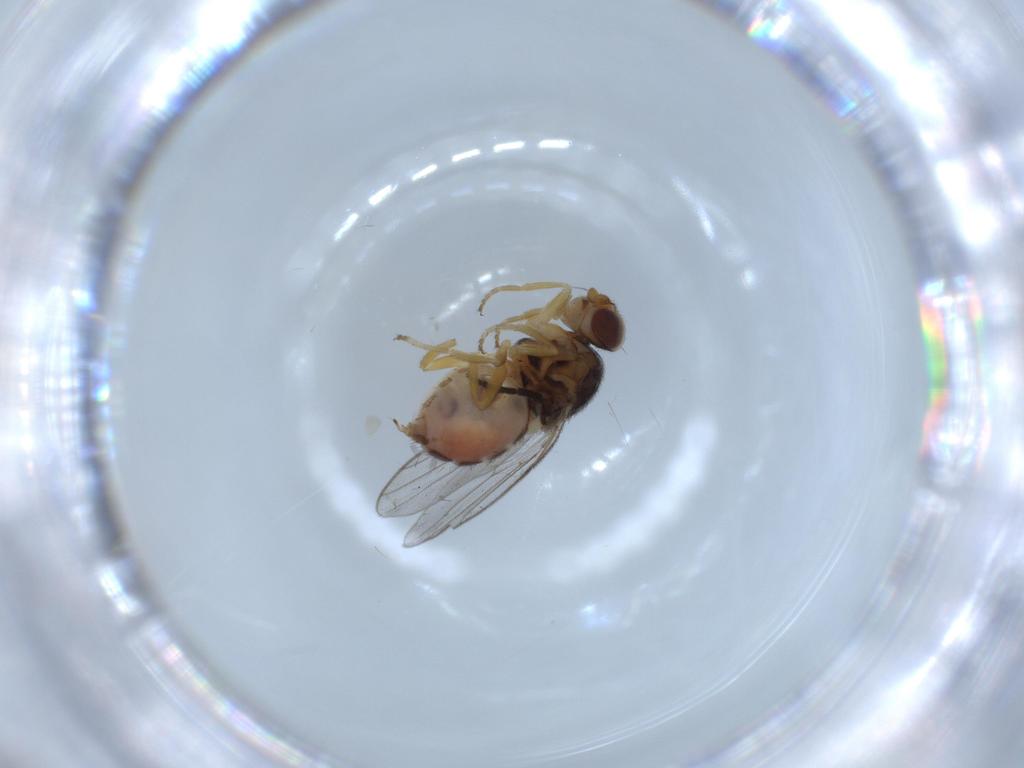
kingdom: Animalia
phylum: Arthropoda
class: Insecta
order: Diptera
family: Chloropidae
